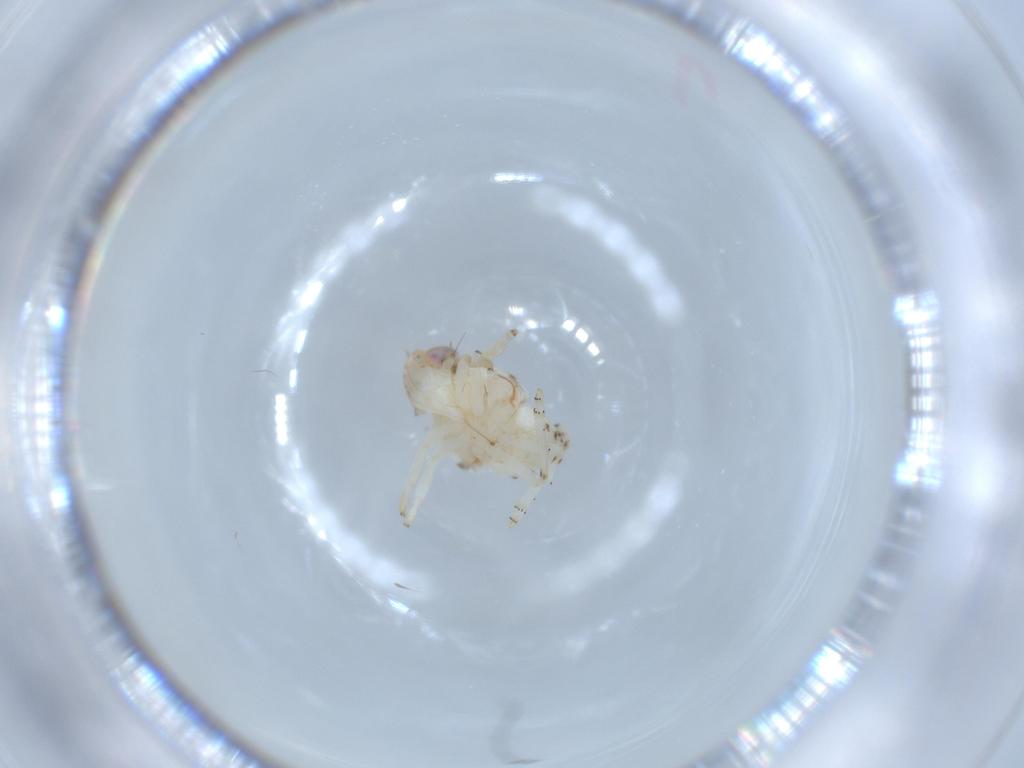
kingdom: Animalia
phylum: Arthropoda
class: Insecta
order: Hemiptera
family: Nogodinidae
